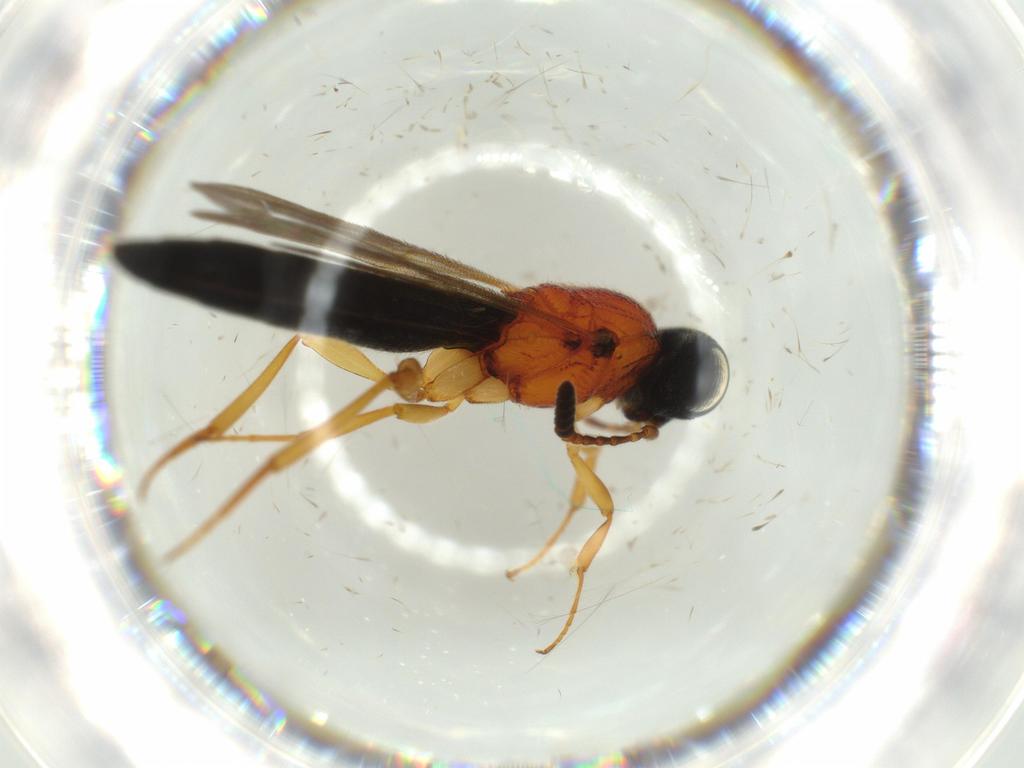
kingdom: Animalia
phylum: Arthropoda
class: Insecta
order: Hymenoptera
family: Scelionidae
